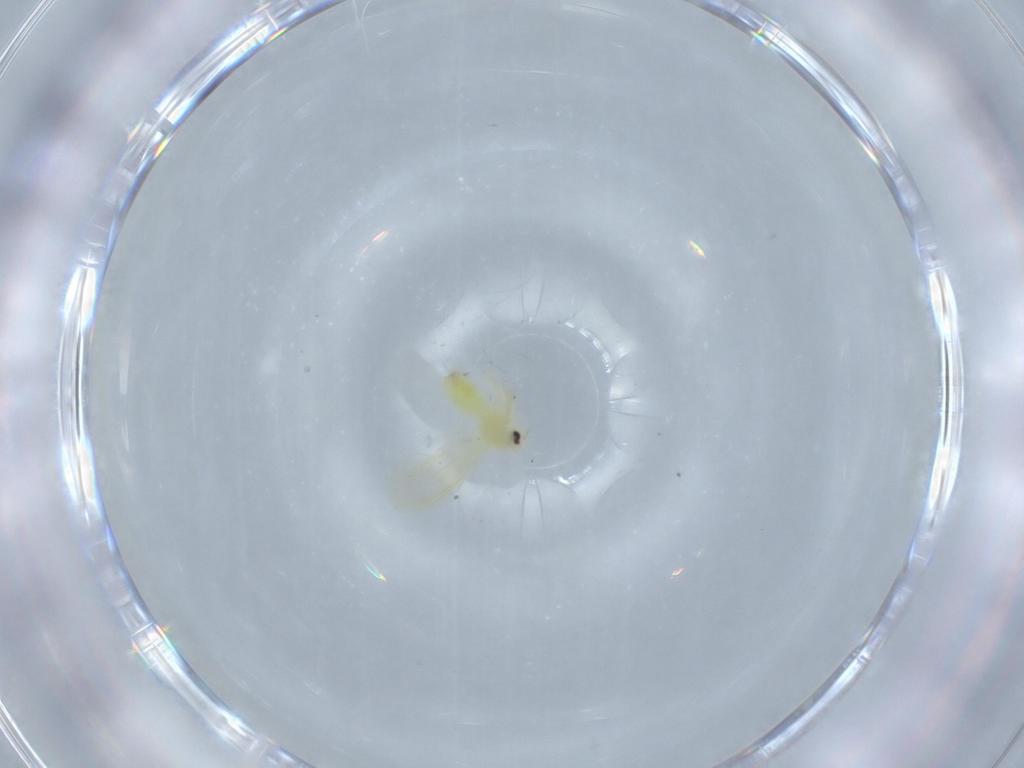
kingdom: Animalia
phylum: Arthropoda
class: Insecta
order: Hemiptera
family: Aleyrodidae
